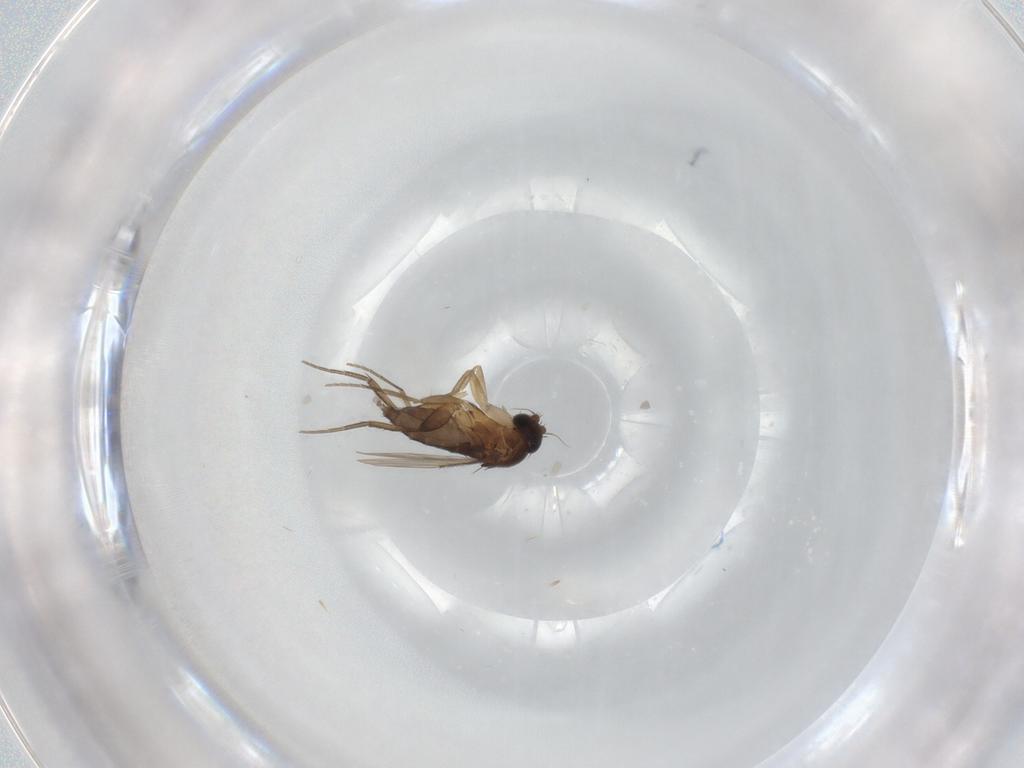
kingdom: Animalia
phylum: Arthropoda
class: Insecta
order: Diptera
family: Phoridae
